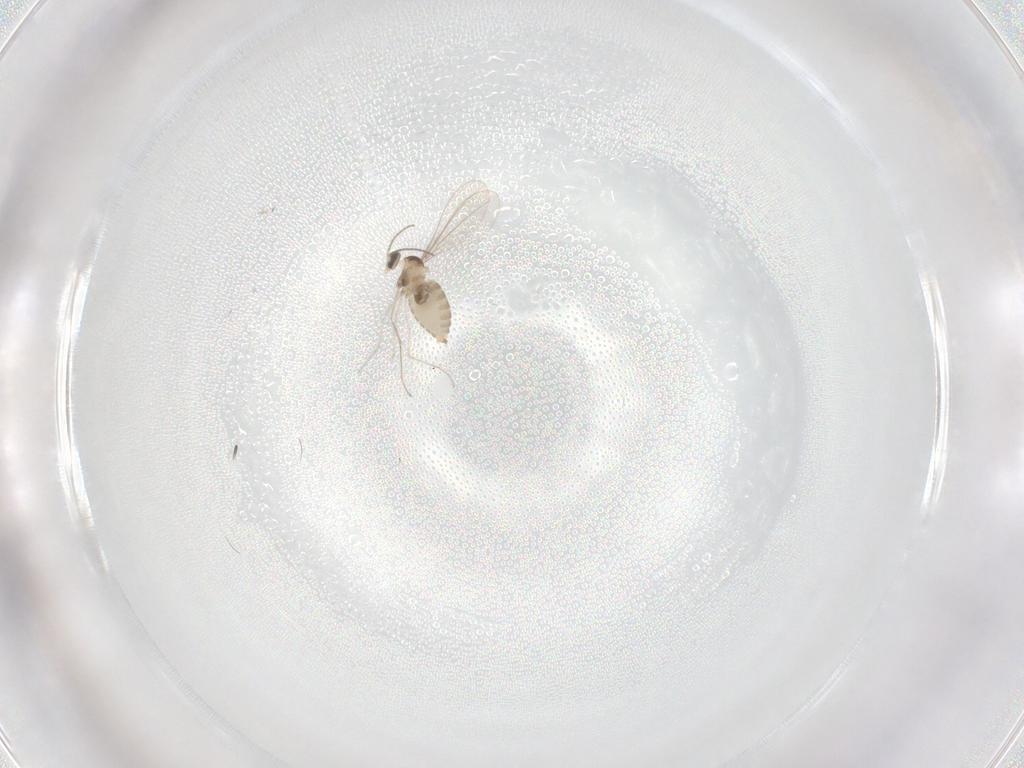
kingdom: Animalia
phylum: Arthropoda
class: Insecta
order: Diptera
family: Cecidomyiidae
